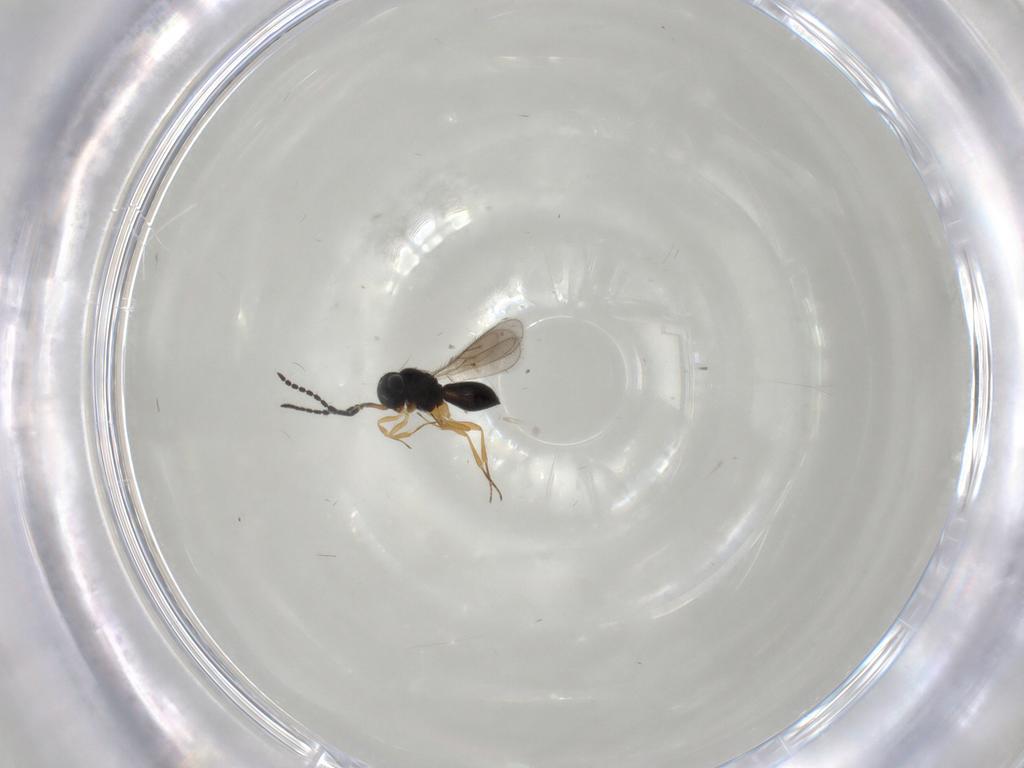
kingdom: Animalia
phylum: Arthropoda
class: Insecta
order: Hymenoptera
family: Scelionidae
